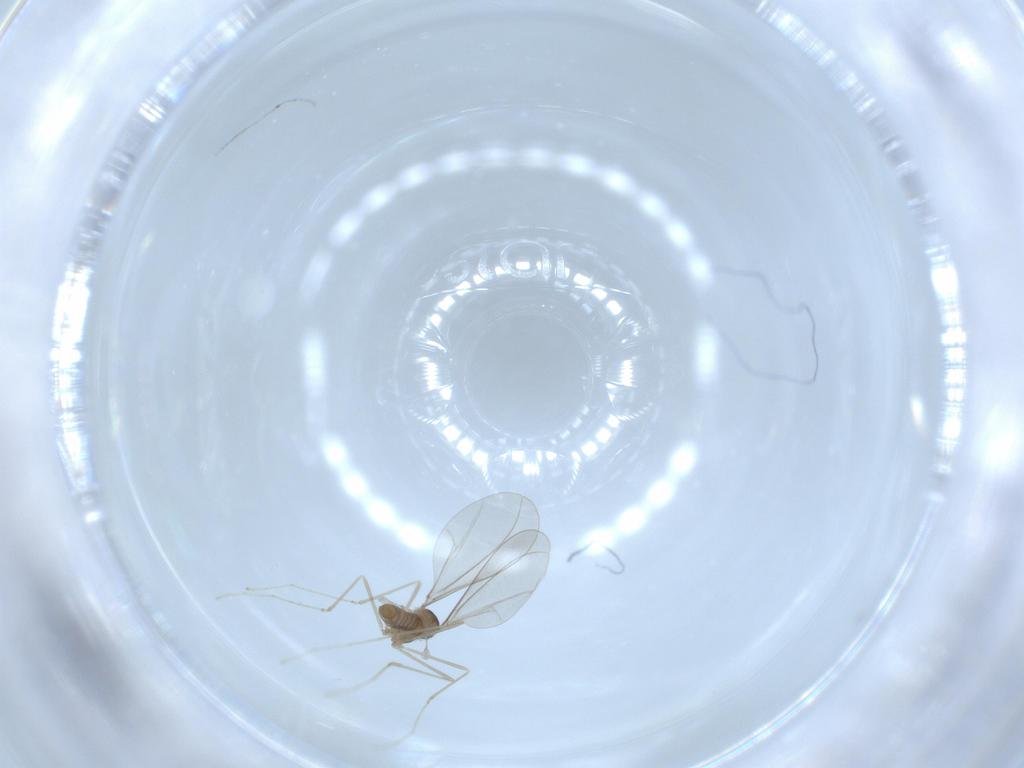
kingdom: Animalia
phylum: Arthropoda
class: Insecta
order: Diptera
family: Cecidomyiidae
